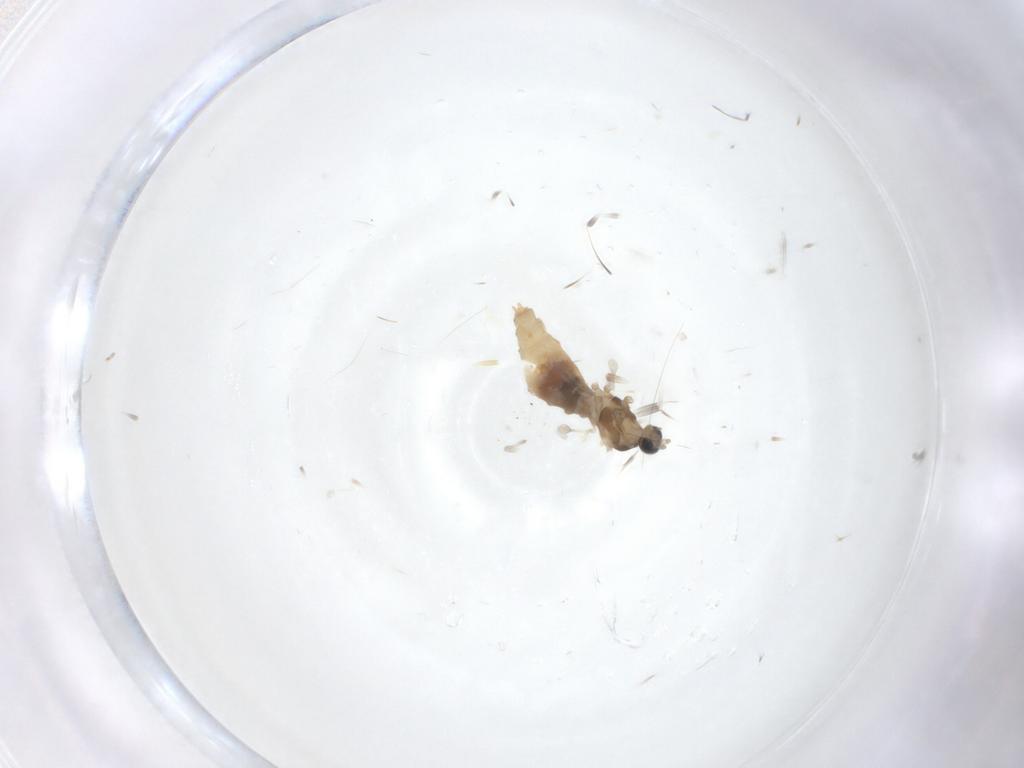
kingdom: Animalia
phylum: Arthropoda
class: Insecta
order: Diptera
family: Cecidomyiidae
